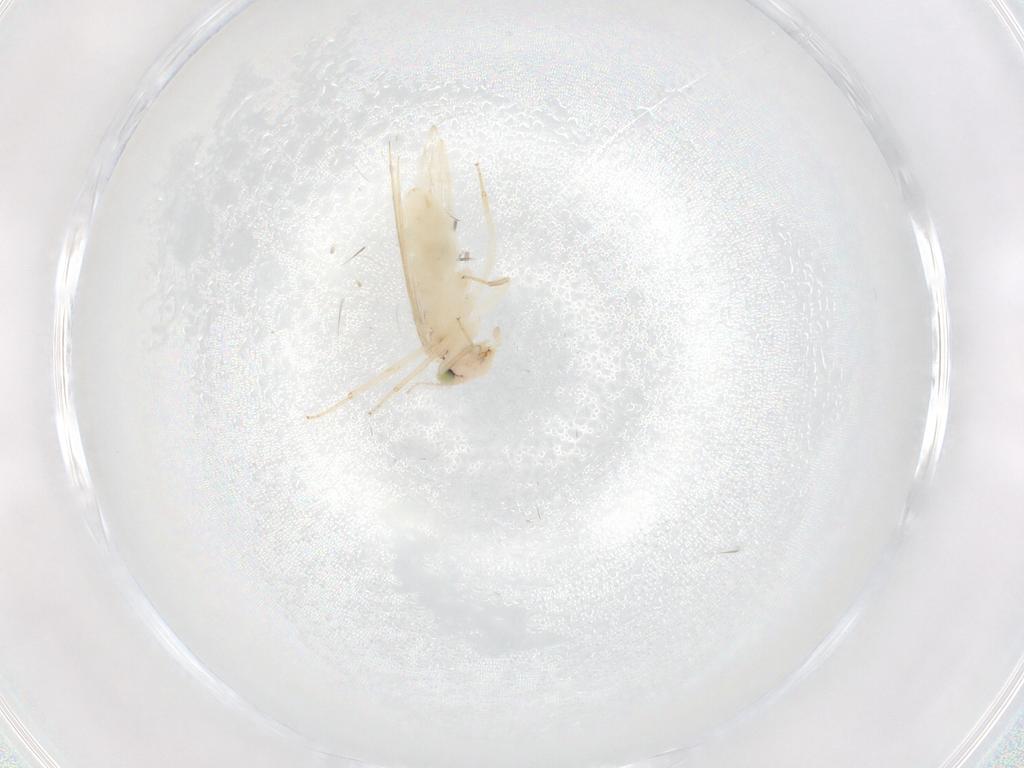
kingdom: Animalia
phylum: Arthropoda
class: Insecta
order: Psocodea
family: Lepidopsocidae
